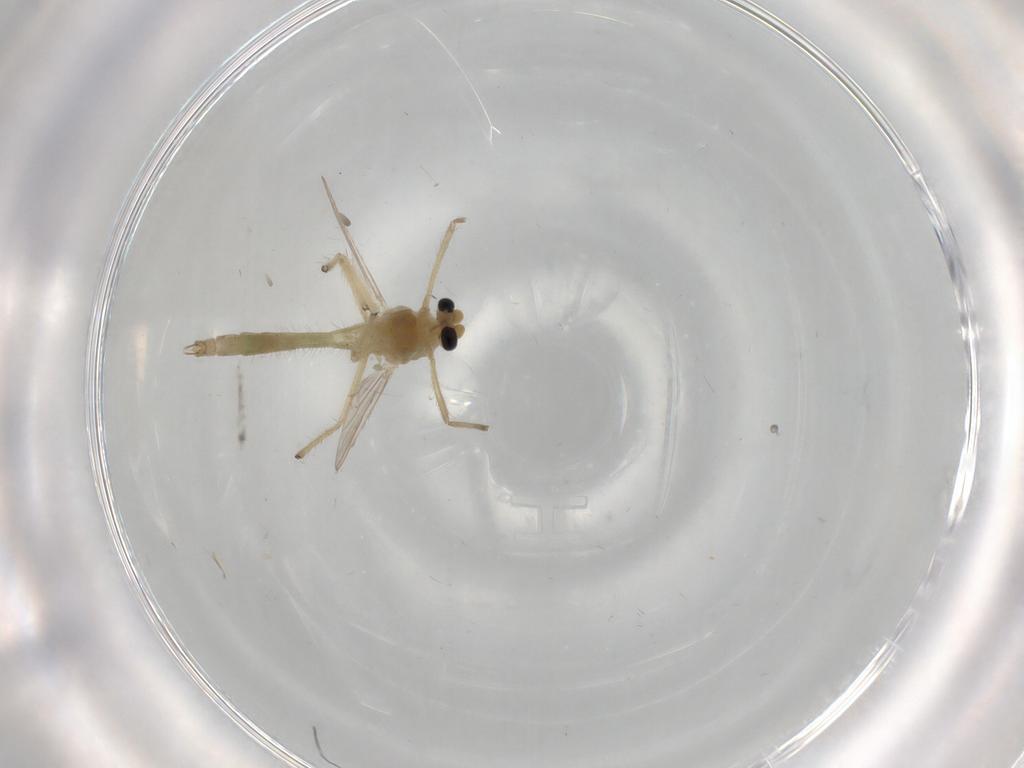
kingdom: Animalia
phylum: Arthropoda
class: Insecta
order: Diptera
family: Chironomidae
